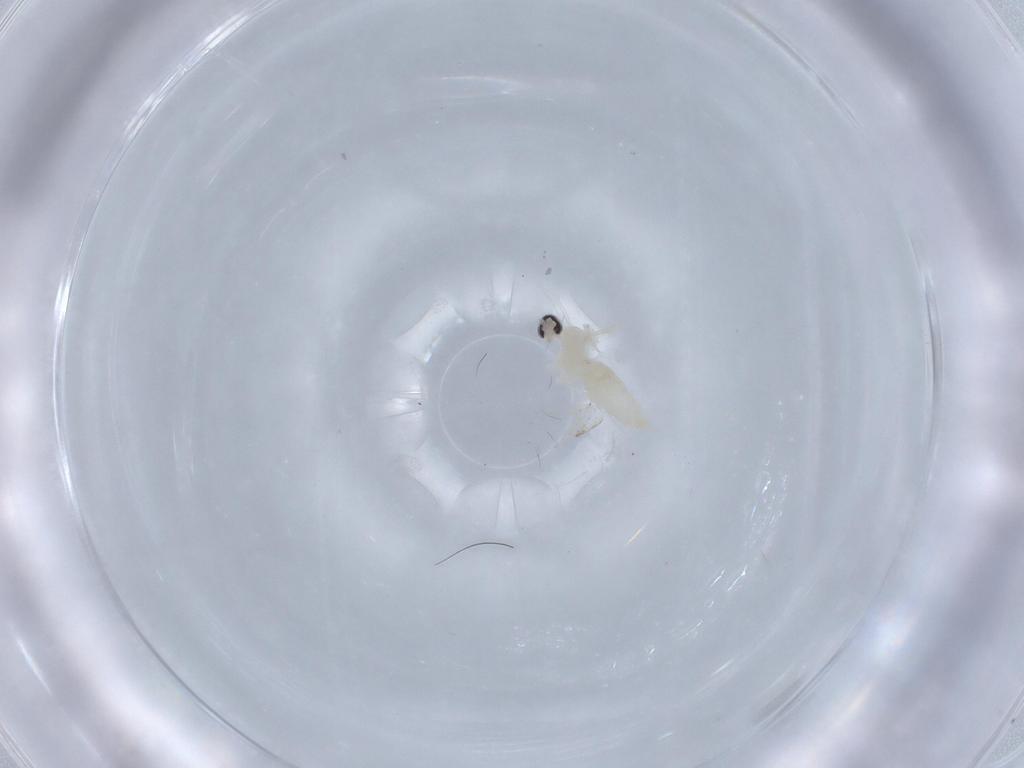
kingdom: Animalia
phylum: Arthropoda
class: Insecta
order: Diptera
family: Cecidomyiidae
